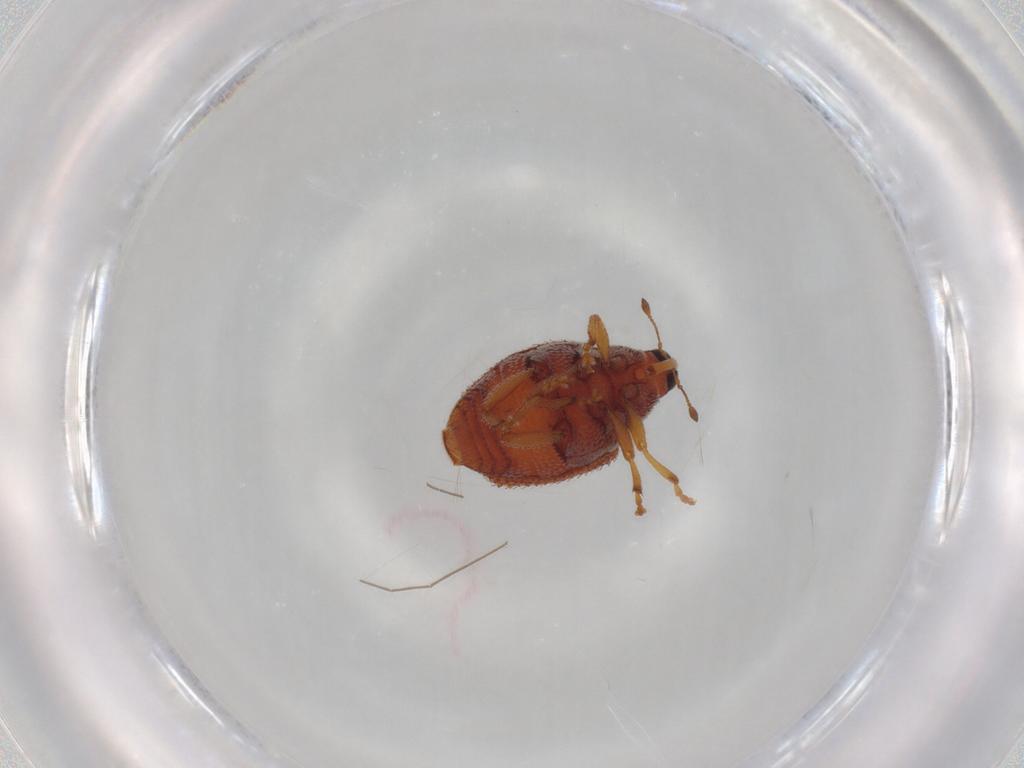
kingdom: Animalia
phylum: Arthropoda
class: Insecta
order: Coleoptera
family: Curculionidae
